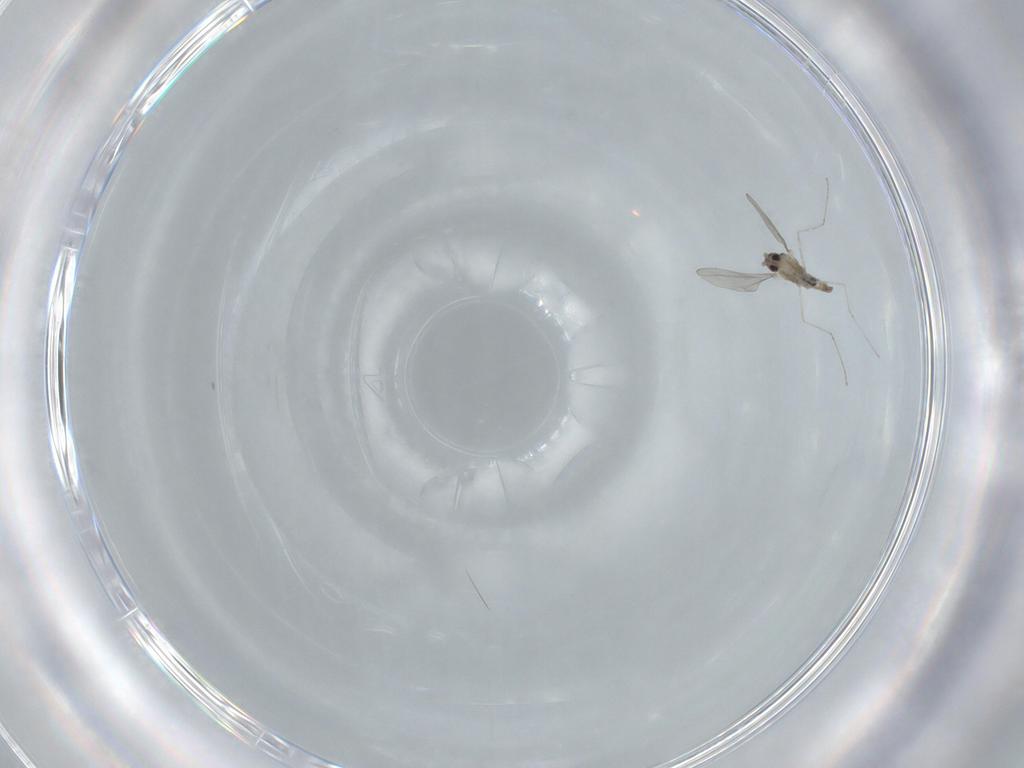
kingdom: Animalia
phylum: Arthropoda
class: Insecta
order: Diptera
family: Cecidomyiidae
